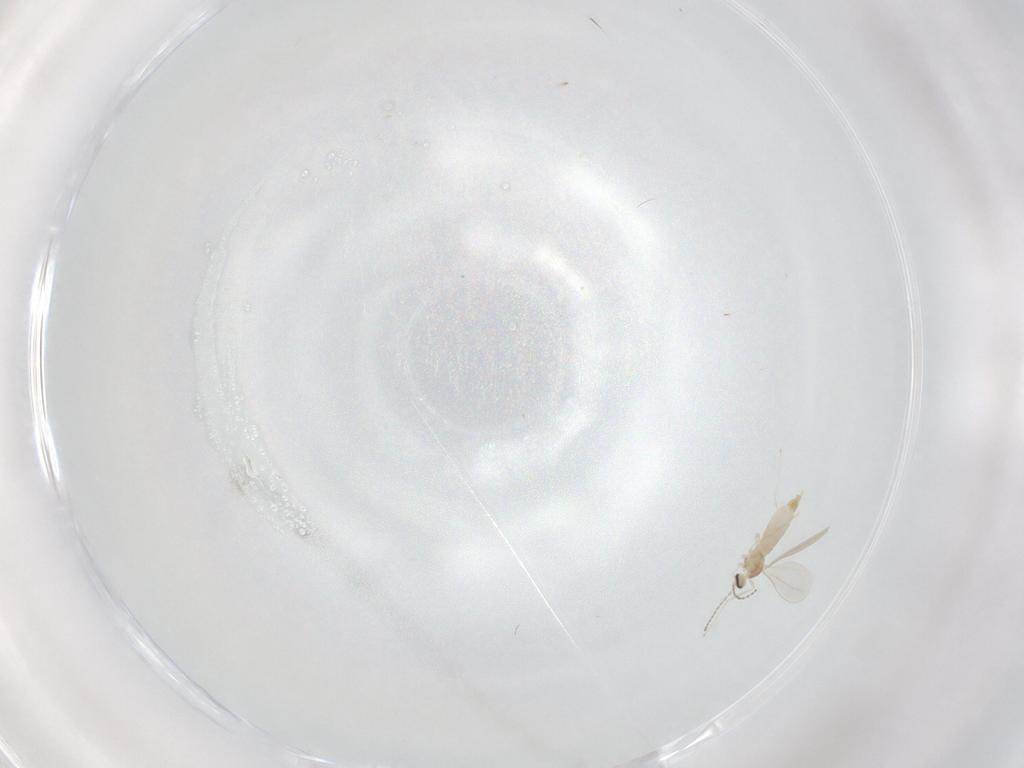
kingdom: Animalia
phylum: Arthropoda
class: Insecta
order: Diptera
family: Cecidomyiidae
